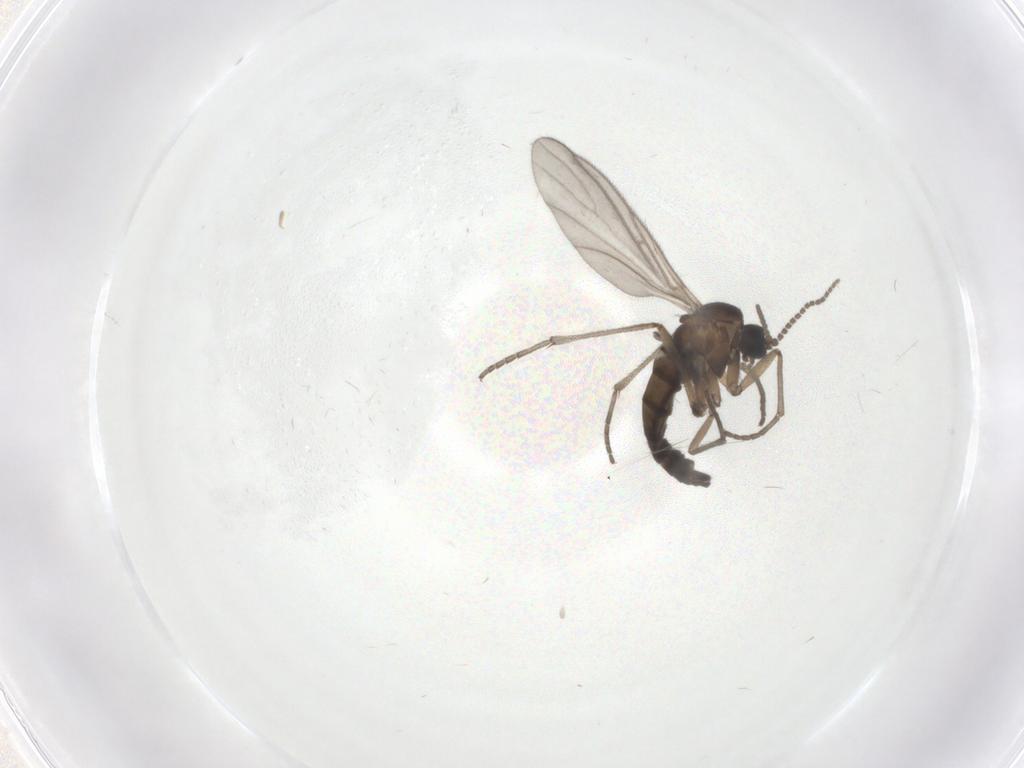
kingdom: Animalia
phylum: Arthropoda
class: Insecta
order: Diptera
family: Sciaridae
